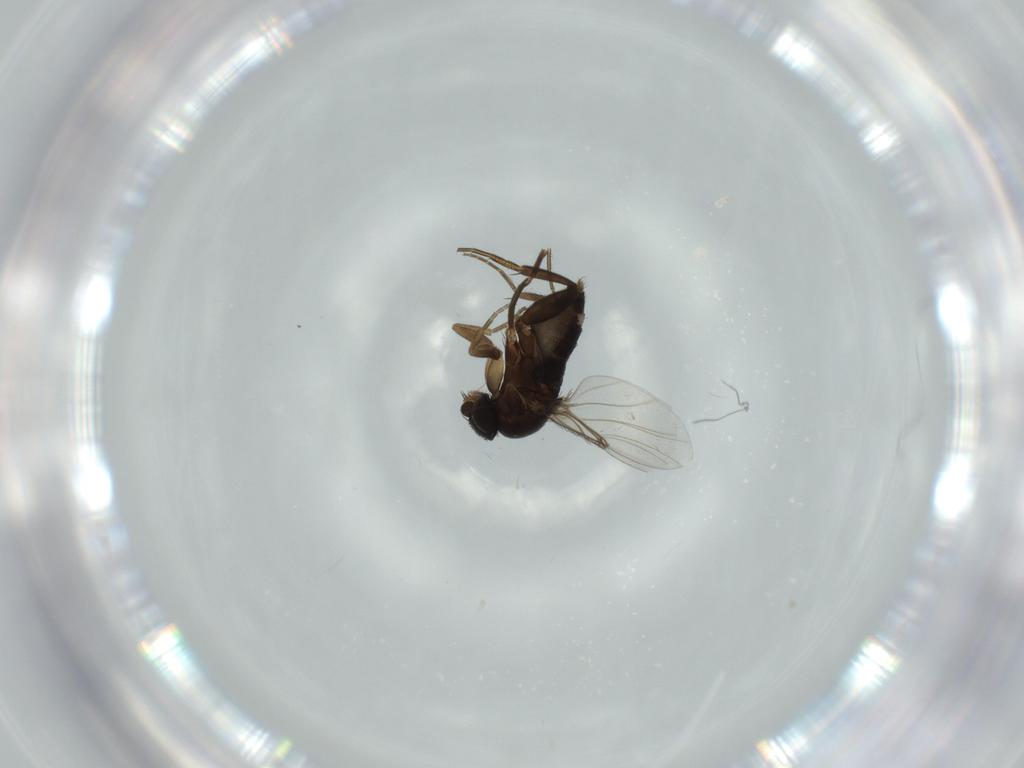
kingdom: Animalia
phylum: Arthropoda
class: Insecta
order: Diptera
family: Phoridae
